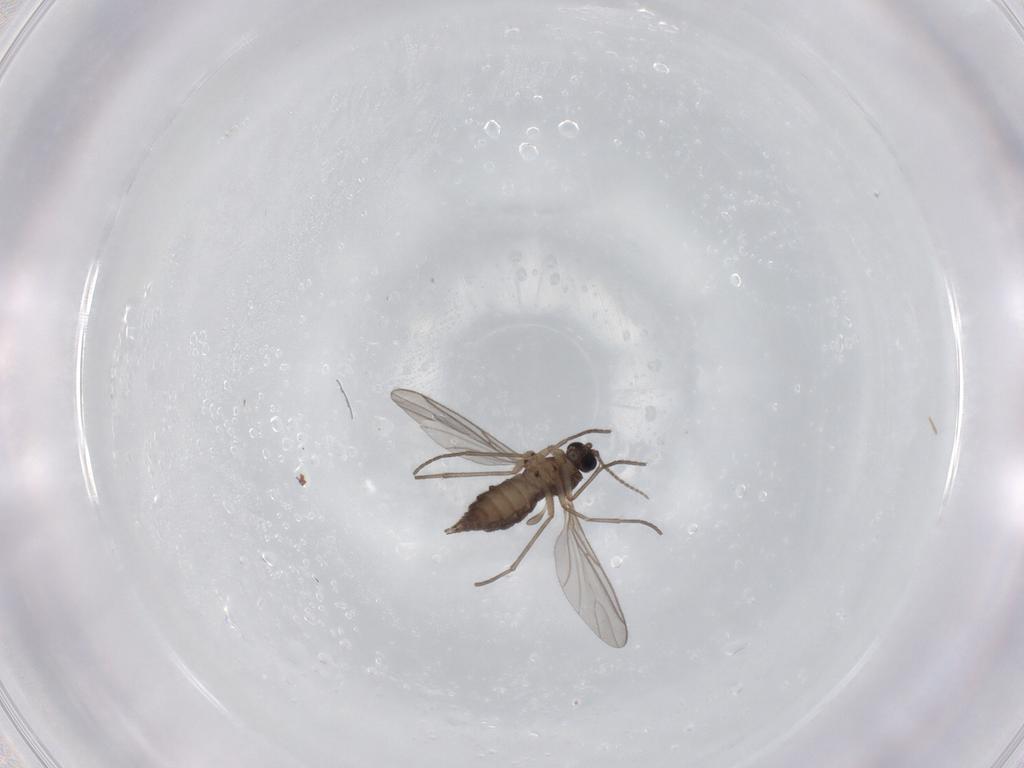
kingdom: Animalia
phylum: Arthropoda
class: Insecta
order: Diptera
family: Sciaridae
